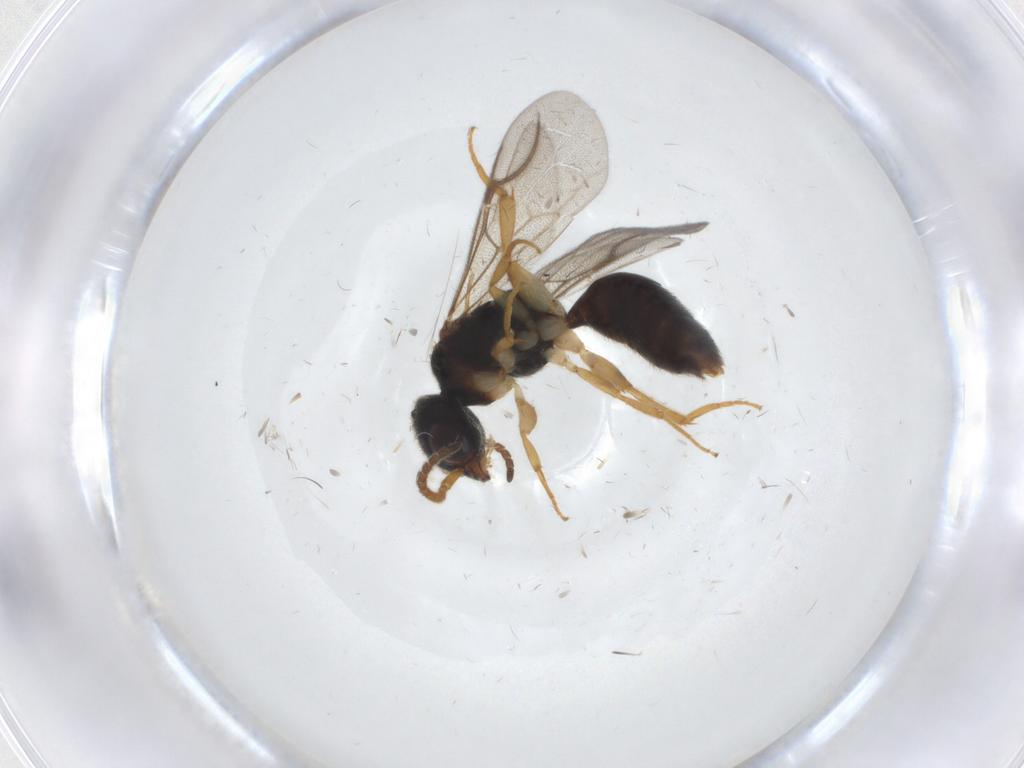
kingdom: Animalia
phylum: Arthropoda
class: Insecta
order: Hymenoptera
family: Bethylidae
